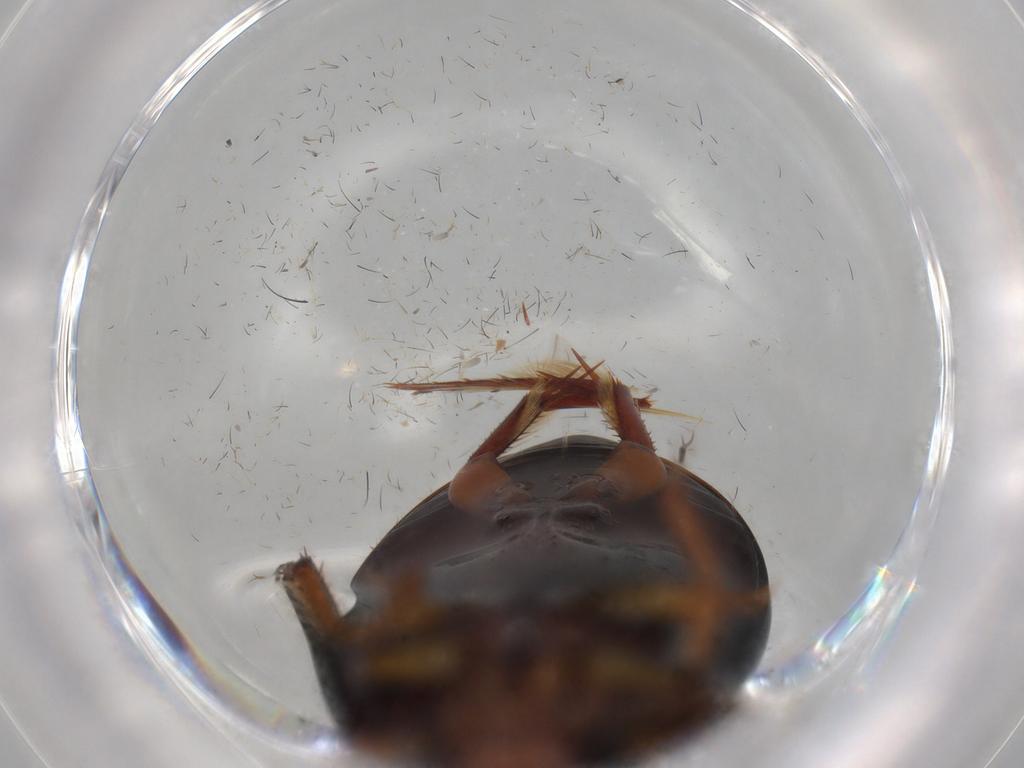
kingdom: Animalia
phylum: Arthropoda
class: Insecta
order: Coleoptera
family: Dytiscidae
